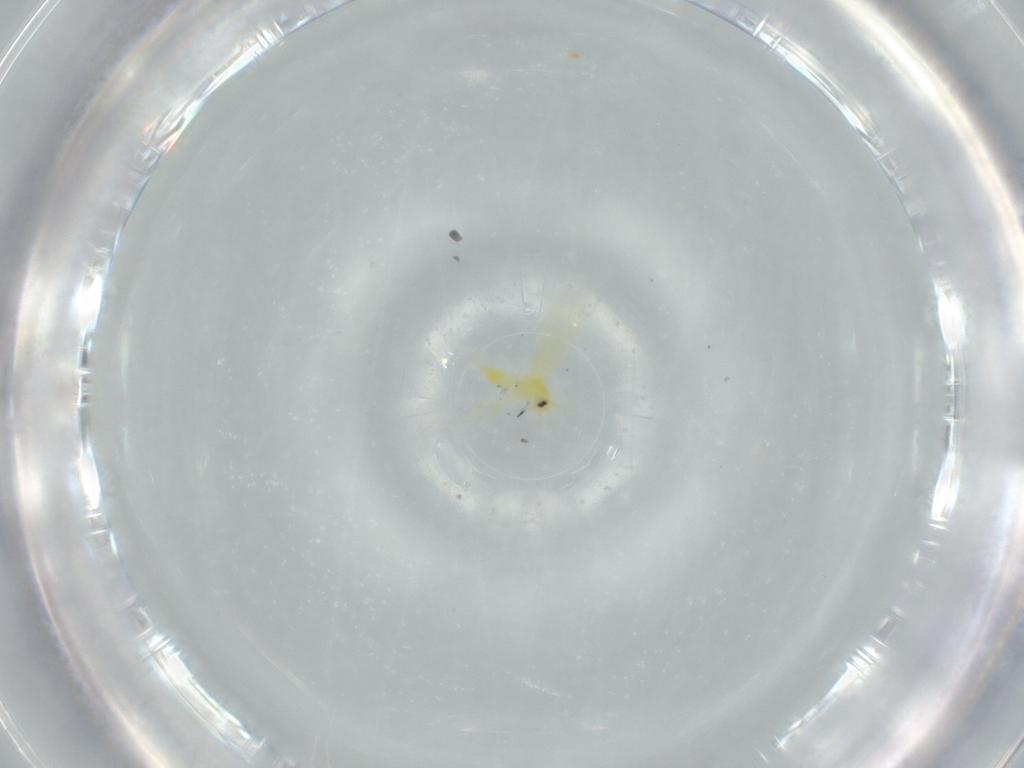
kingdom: Animalia
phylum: Arthropoda
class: Insecta
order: Hemiptera
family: Aleyrodidae
